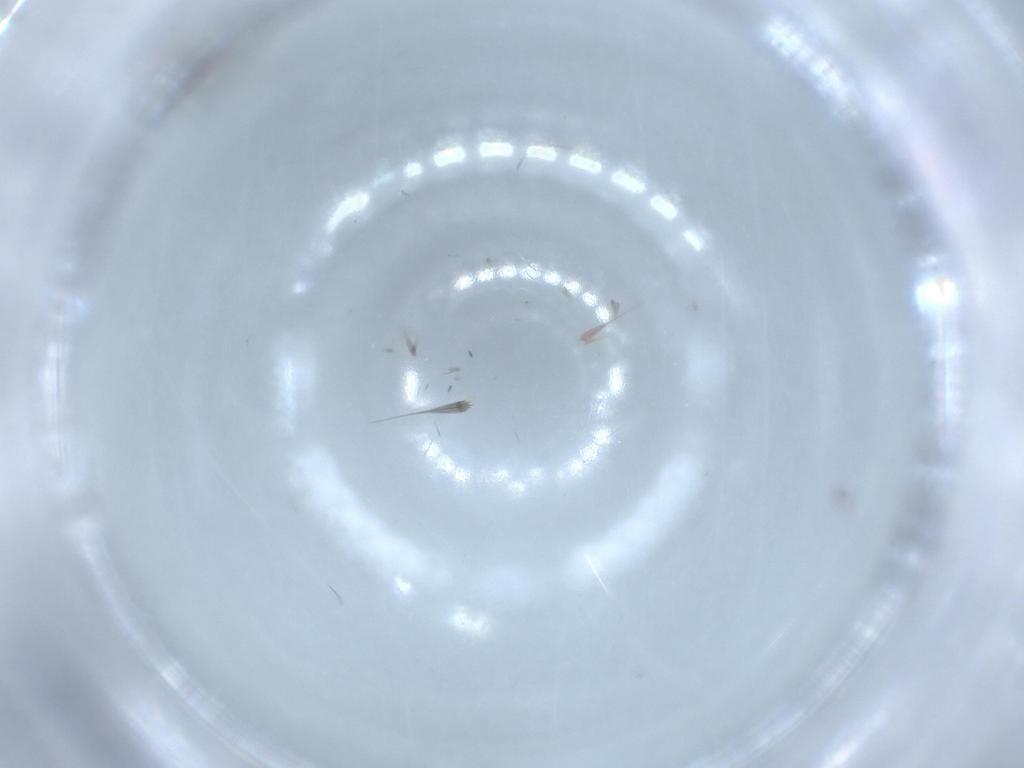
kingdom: Animalia
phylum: Arthropoda
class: Insecta
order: Diptera
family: Phoridae
